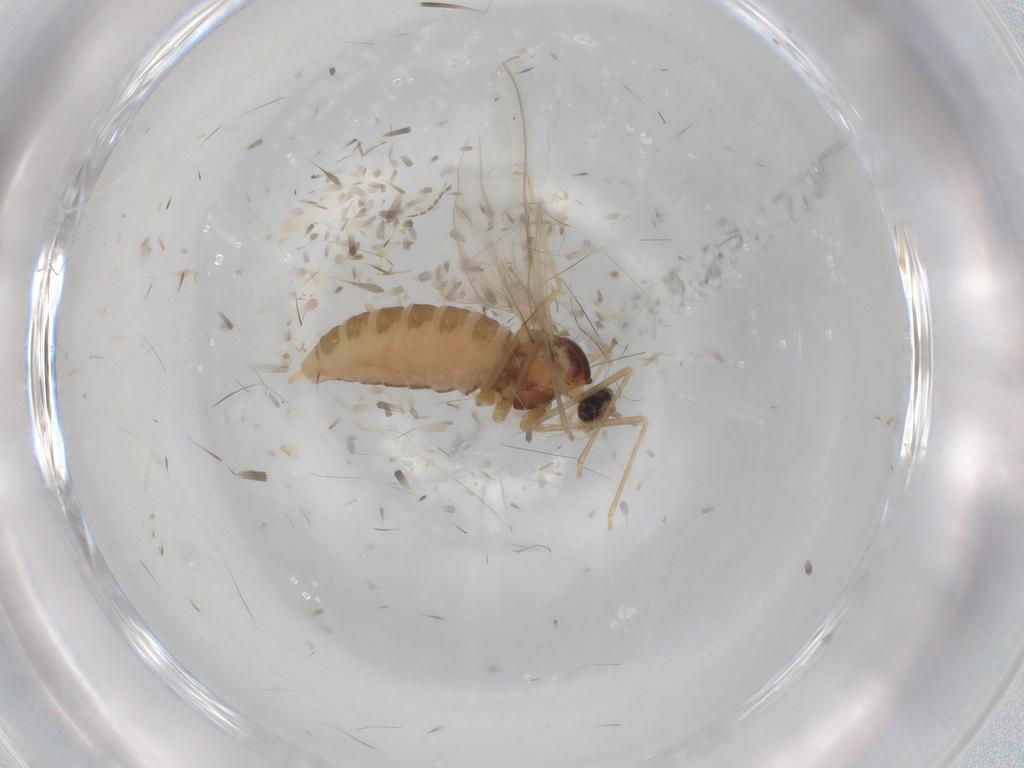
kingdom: Animalia
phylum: Arthropoda
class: Insecta
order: Diptera
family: Cecidomyiidae
